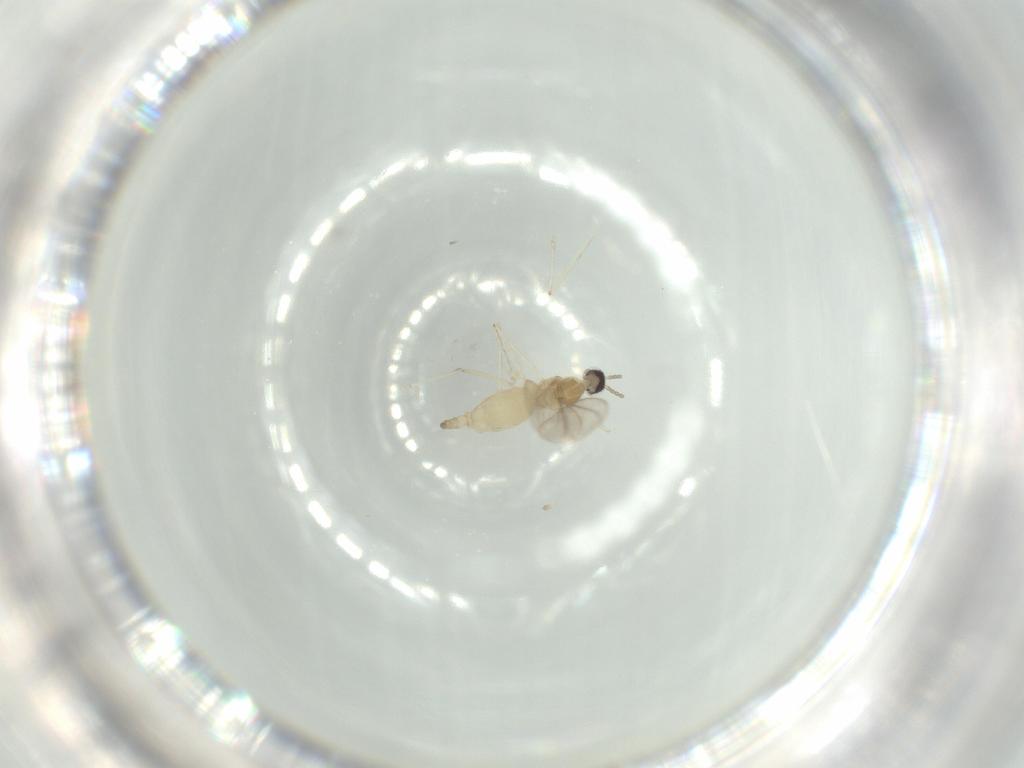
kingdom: Animalia
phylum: Arthropoda
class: Insecta
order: Diptera
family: Cecidomyiidae
